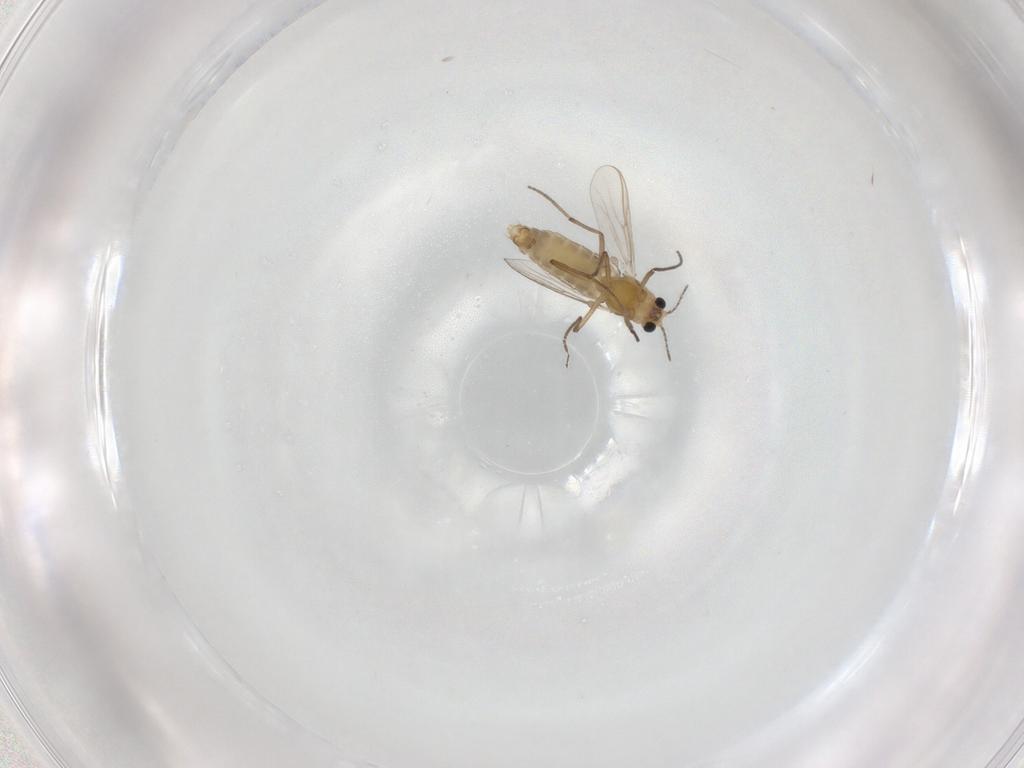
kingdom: Animalia
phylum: Arthropoda
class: Insecta
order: Diptera
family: Chironomidae
